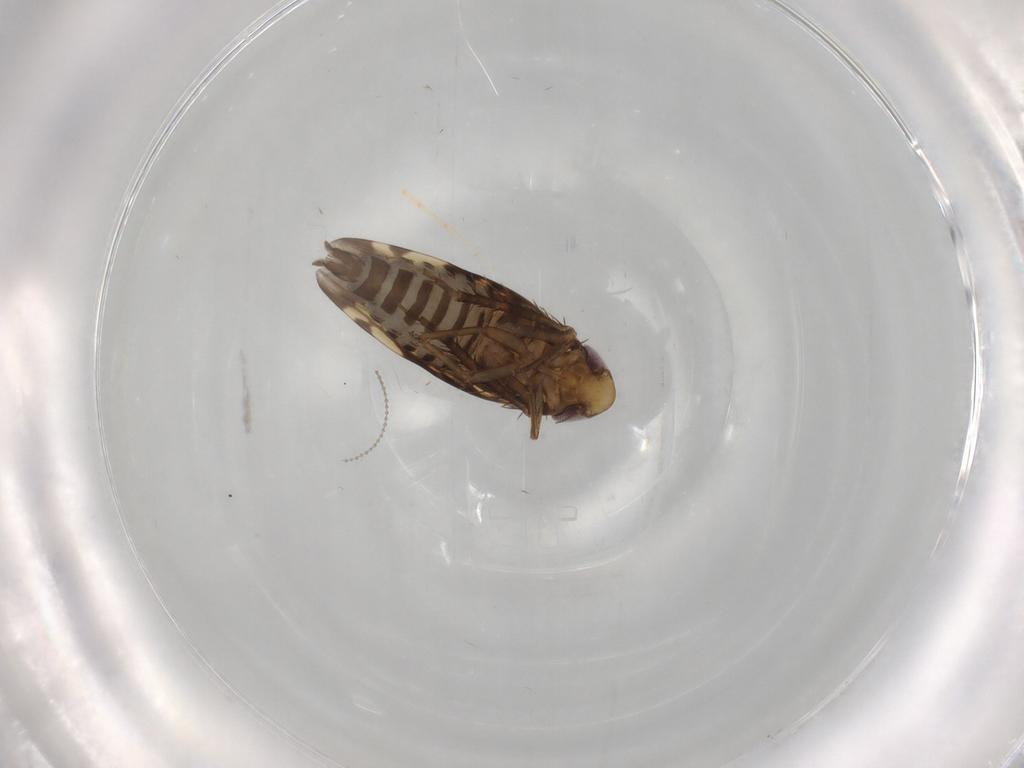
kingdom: Animalia
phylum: Arthropoda
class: Insecta
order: Hemiptera
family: Cicadellidae
